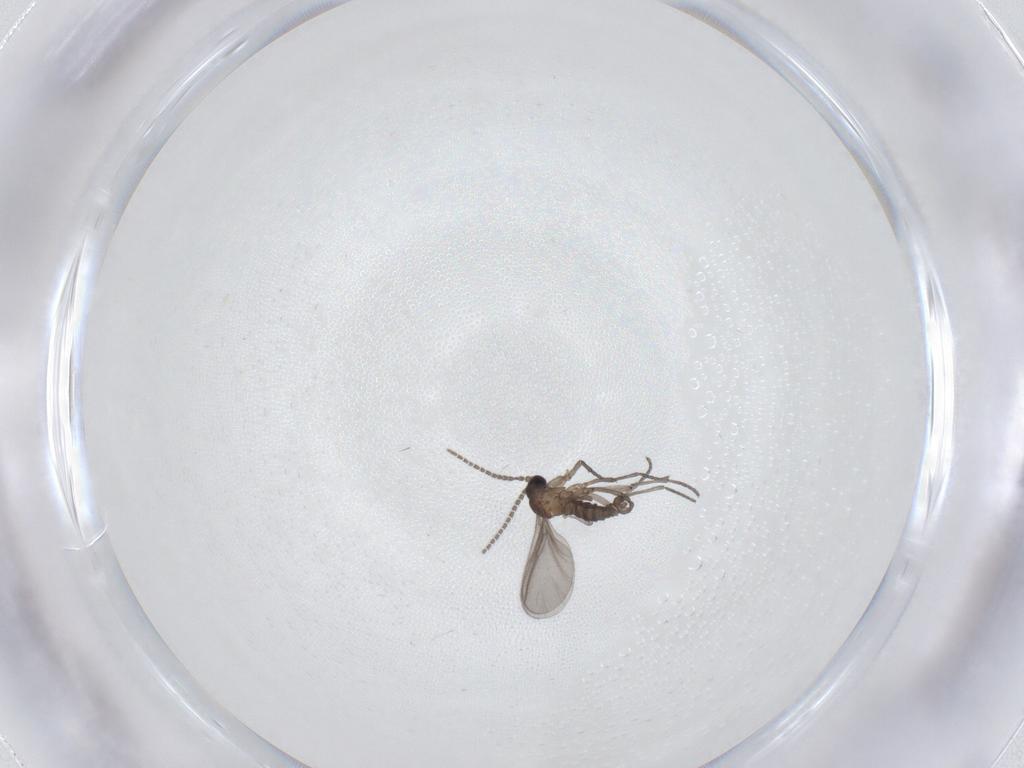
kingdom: Animalia
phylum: Arthropoda
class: Insecta
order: Diptera
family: Sciaridae
